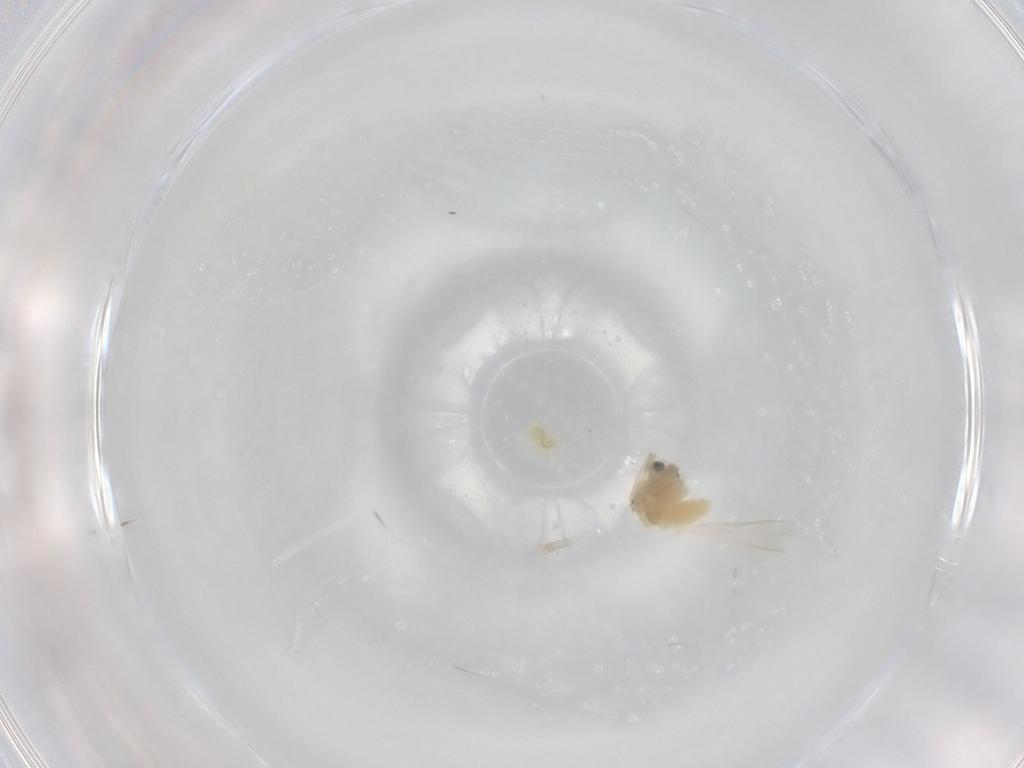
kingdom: Animalia
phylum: Arthropoda
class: Insecta
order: Diptera
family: Chironomidae
